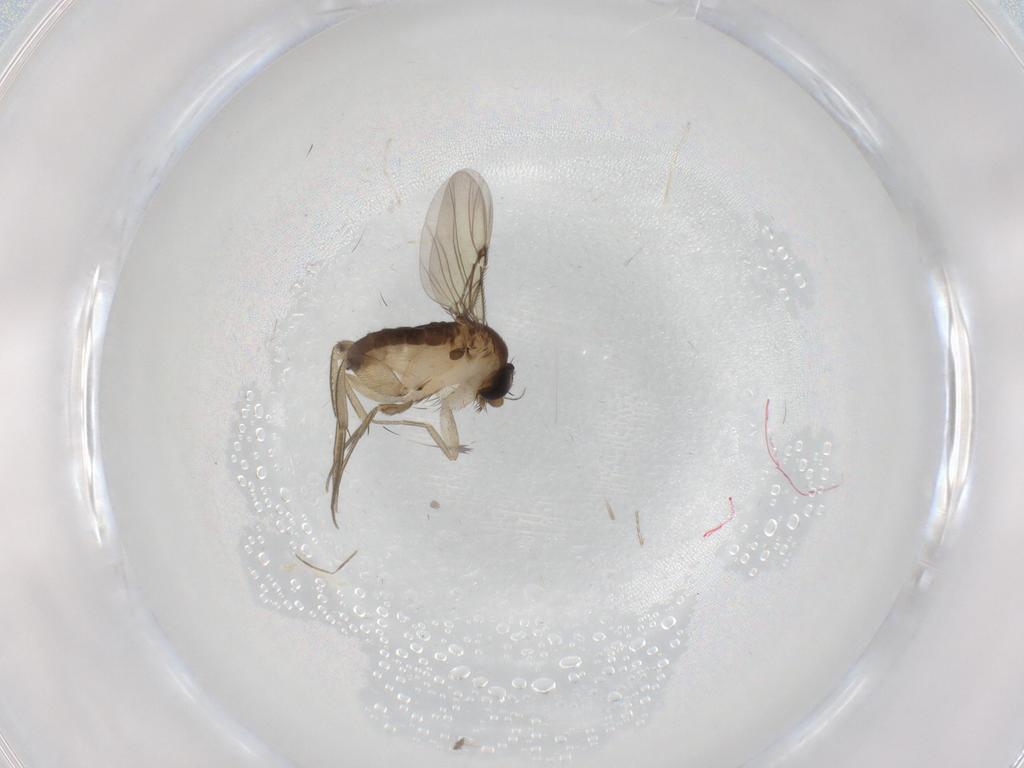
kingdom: Animalia
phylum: Arthropoda
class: Insecta
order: Diptera
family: Phoridae
